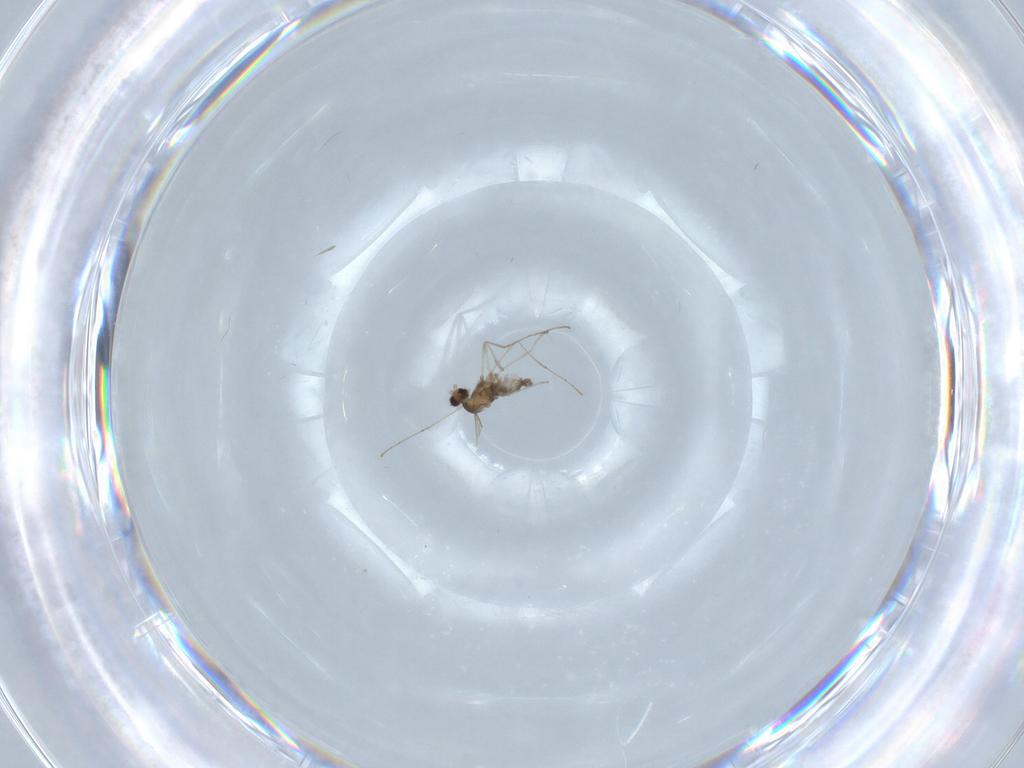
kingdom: Animalia
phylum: Arthropoda
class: Insecta
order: Diptera
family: Cecidomyiidae
